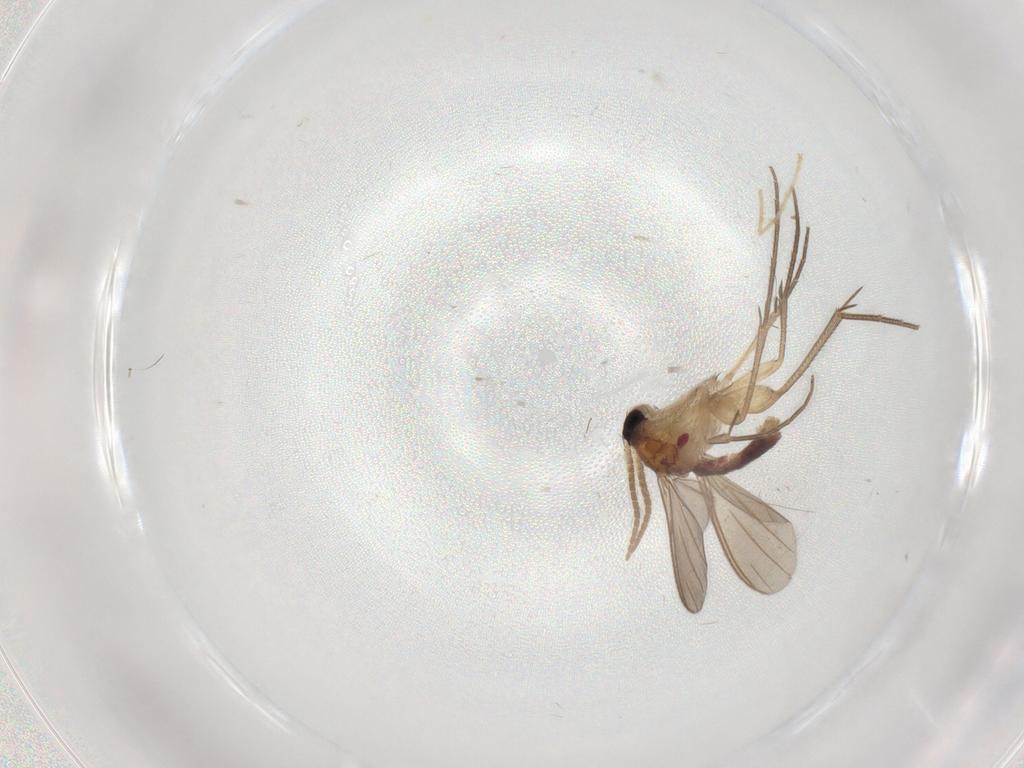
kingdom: Animalia
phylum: Arthropoda
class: Insecta
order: Diptera
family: Mycetophilidae
